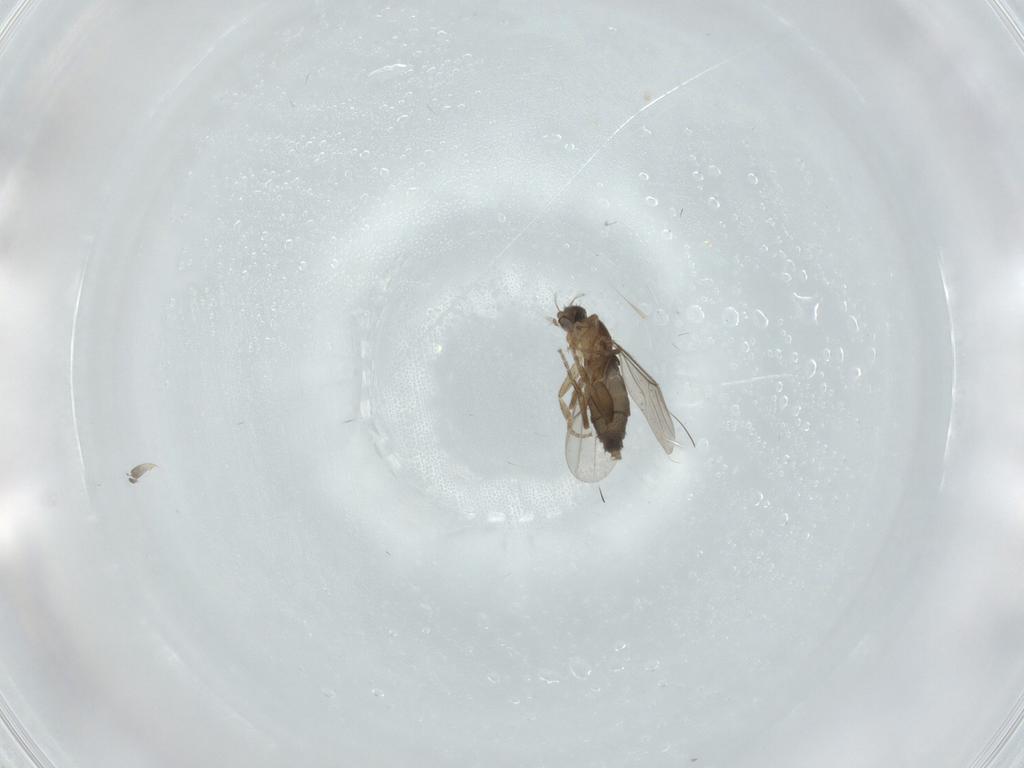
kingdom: Animalia
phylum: Arthropoda
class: Insecta
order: Diptera
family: Phoridae
